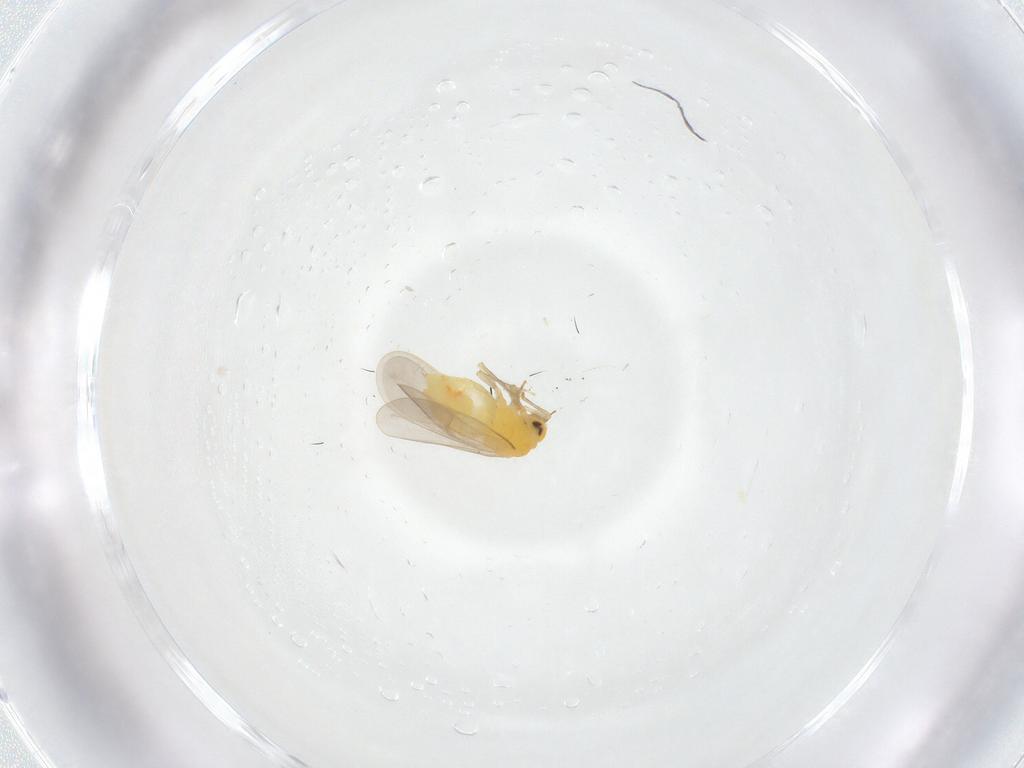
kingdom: Animalia
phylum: Arthropoda
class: Insecta
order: Hemiptera
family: Aleyrodidae
